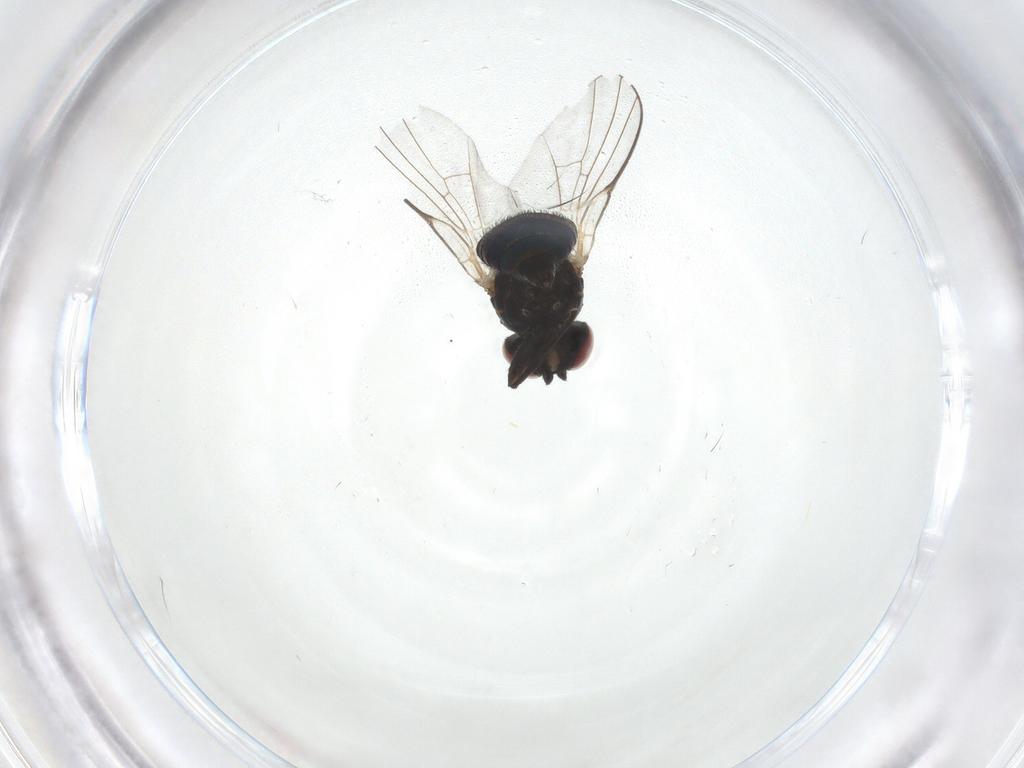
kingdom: Animalia
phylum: Arthropoda
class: Insecta
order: Diptera
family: Agromyzidae
